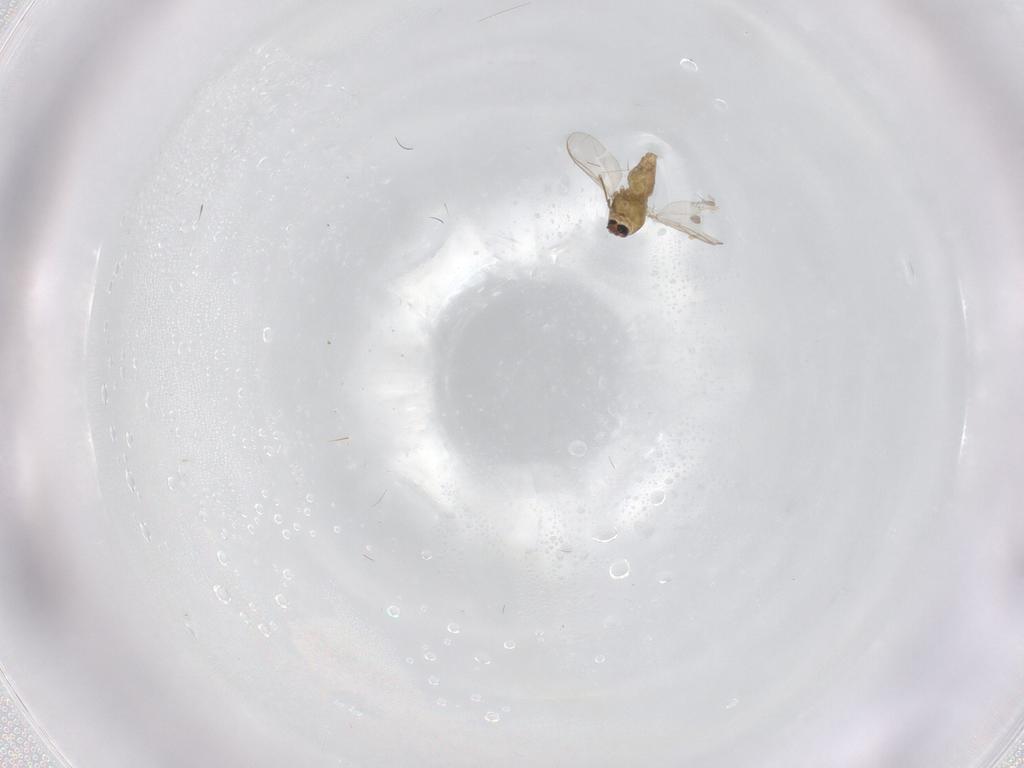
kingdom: Animalia
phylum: Arthropoda
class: Insecta
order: Diptera
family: Chironomidae
